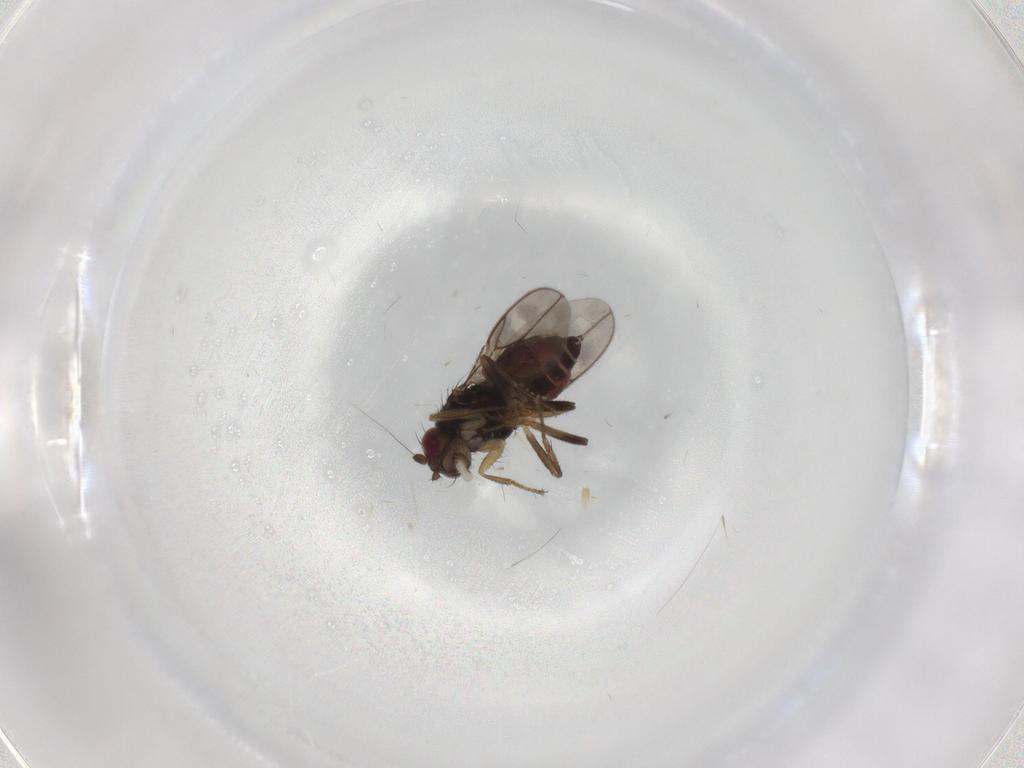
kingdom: Animalia
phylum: Arthropoda
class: Insecta
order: Diptera
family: Sphaeroceridae
